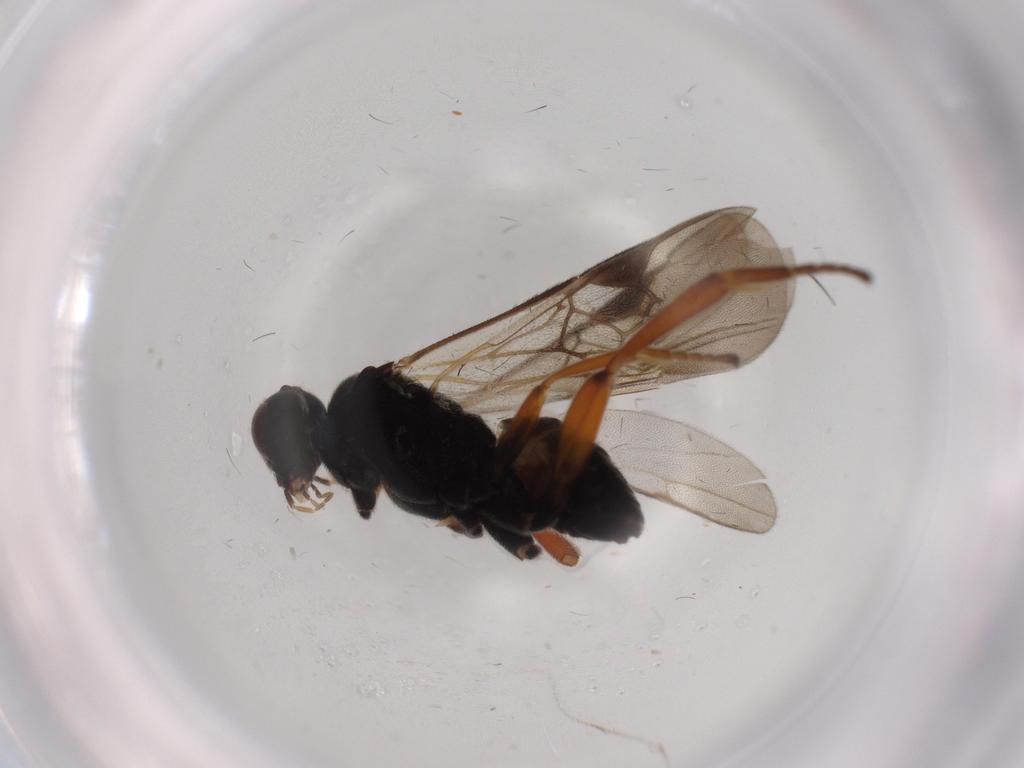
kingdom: Animalia
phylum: Arthropoda
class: Insecta
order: Hymenoptera
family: Braconidae
